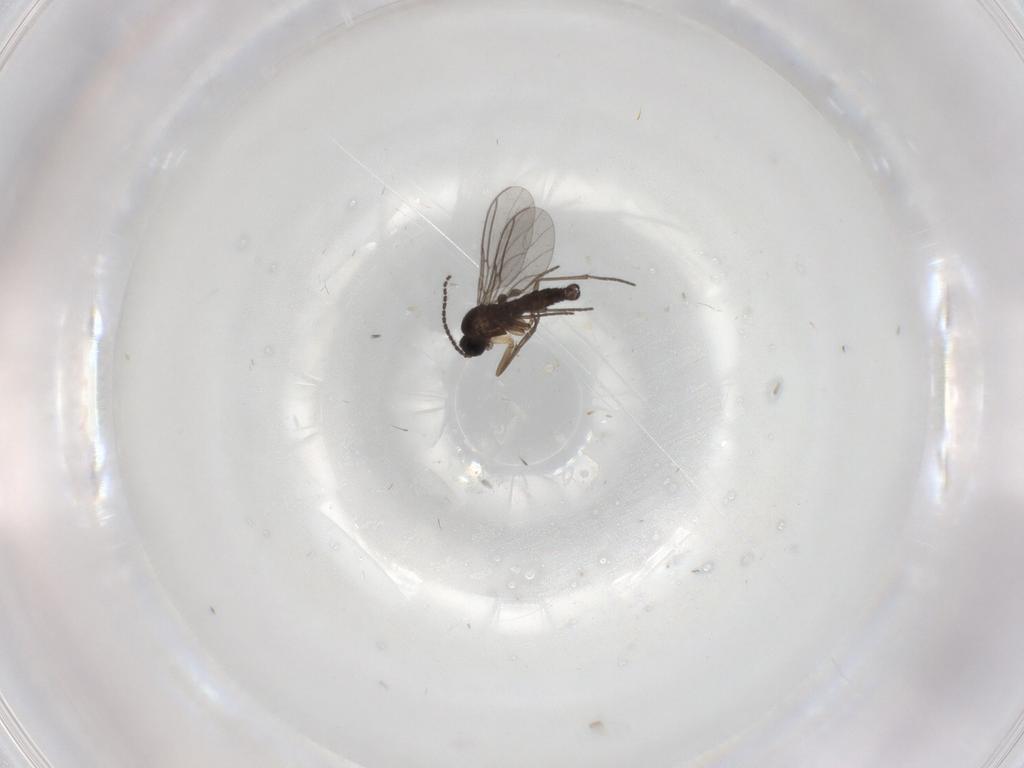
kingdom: Animalia
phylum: Arthropoda
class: Insecta
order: Diptera
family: Sciaridae
